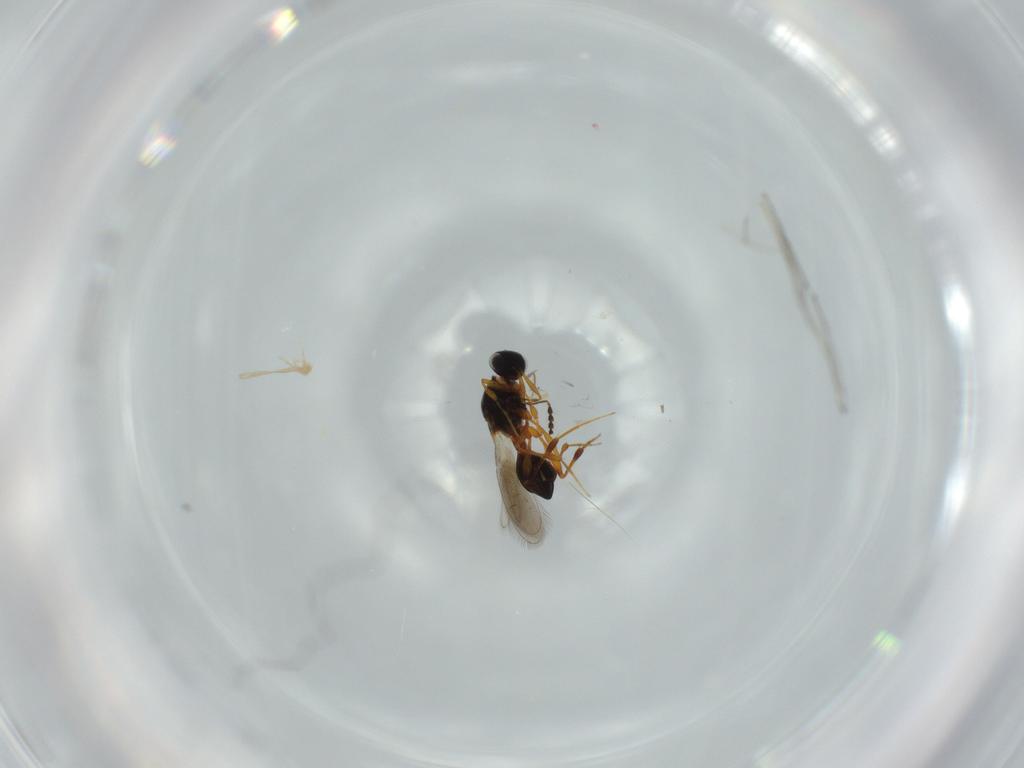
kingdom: Animalia
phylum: Arthropoda
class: Insecta
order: Hymenoptera
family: Platygastridae
